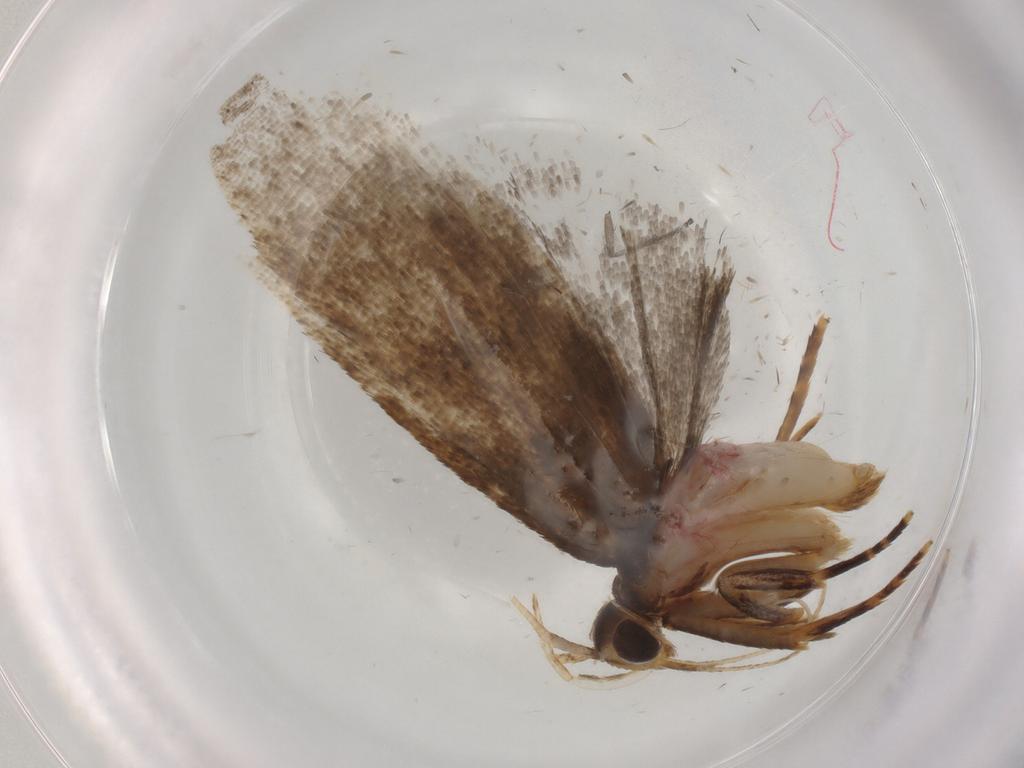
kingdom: Animalia
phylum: Arthropoda
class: Insecta
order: Lepidoptera
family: Autostichidae
